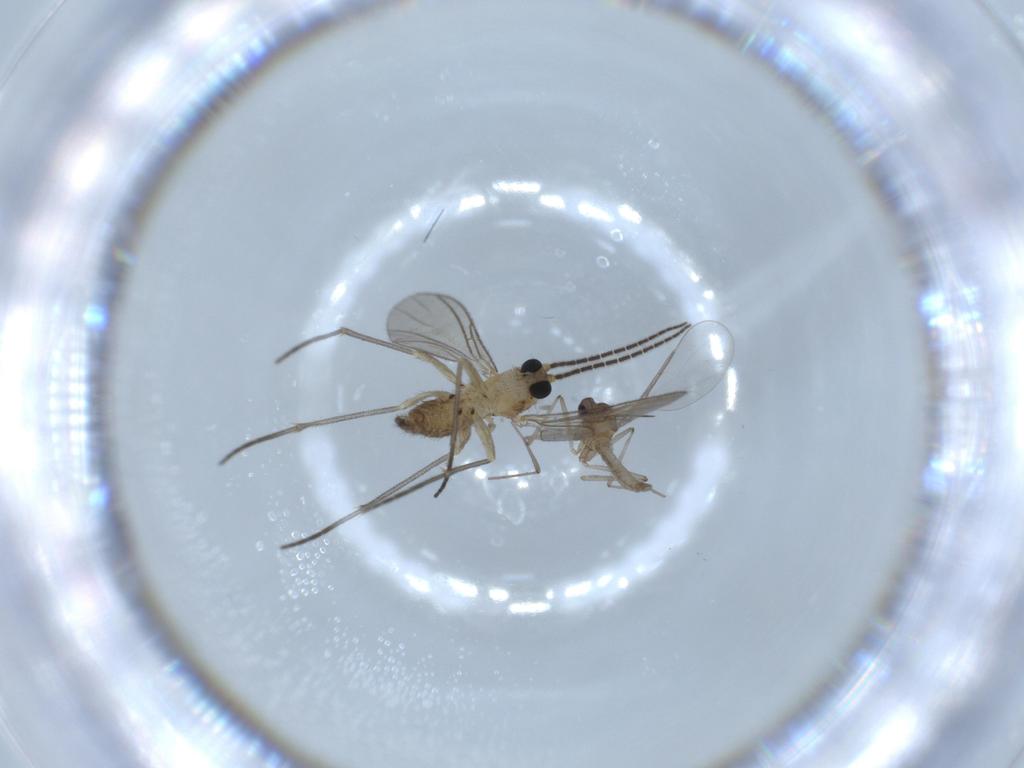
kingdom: Animalia
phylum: Arthropoda
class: Insecta
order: Diptera
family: Sciaridae
